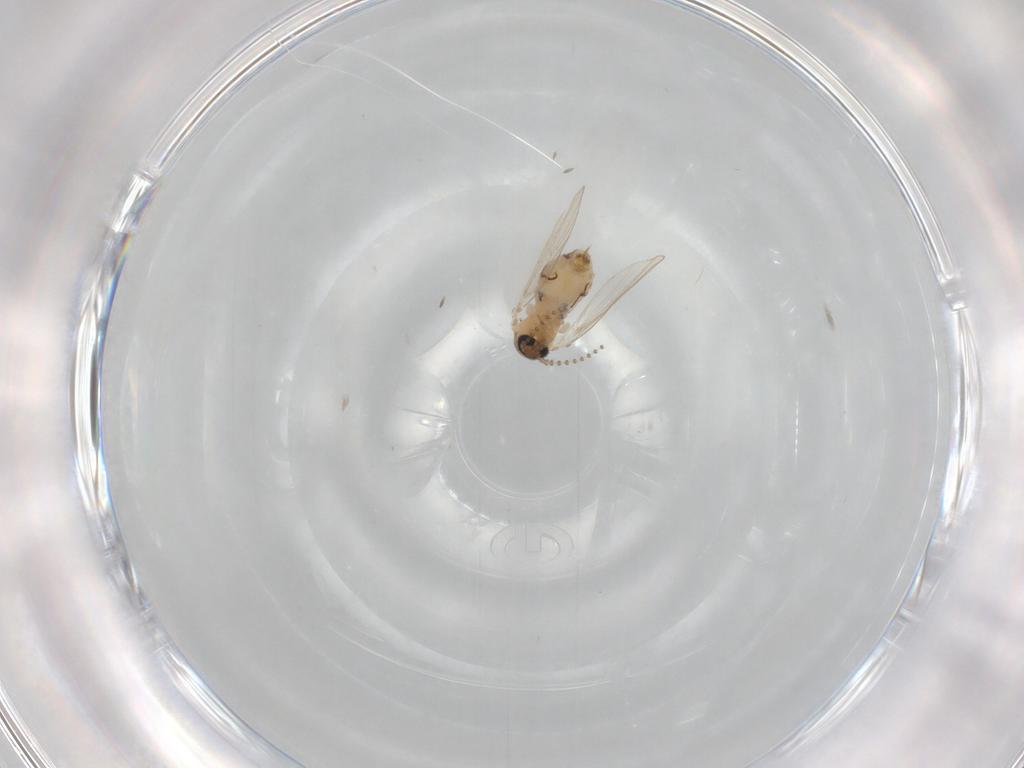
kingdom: Animalia
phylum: Arthropoda
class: Insecta
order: Diptera
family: Psychodidae
